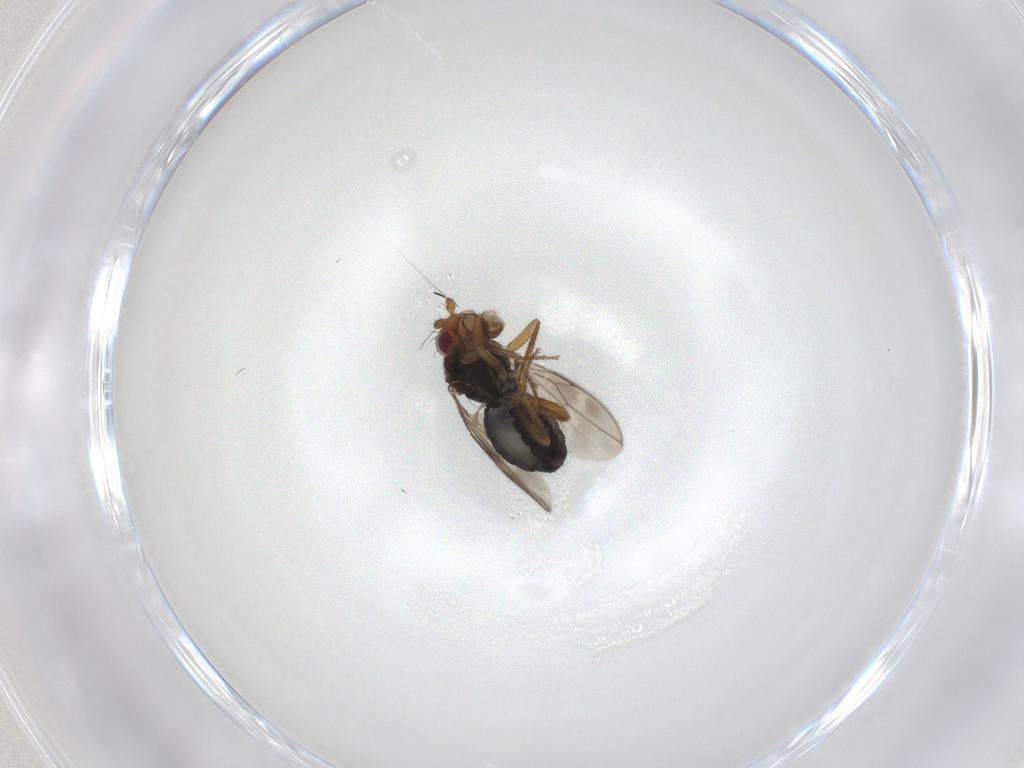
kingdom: Animalia
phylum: Arthropoda
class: Insecta
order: Diptera
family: Sphaeroceridae
